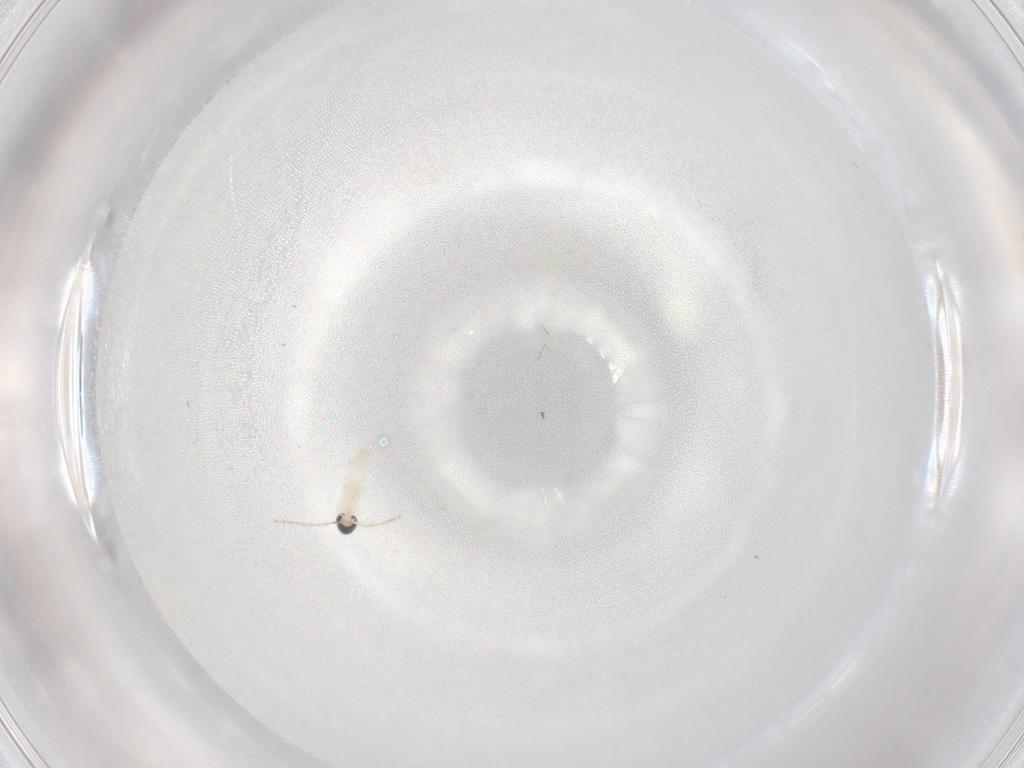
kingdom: Animalia
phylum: Arthropoda
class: Insecta
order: Diptera
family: Cecidomyiidae
